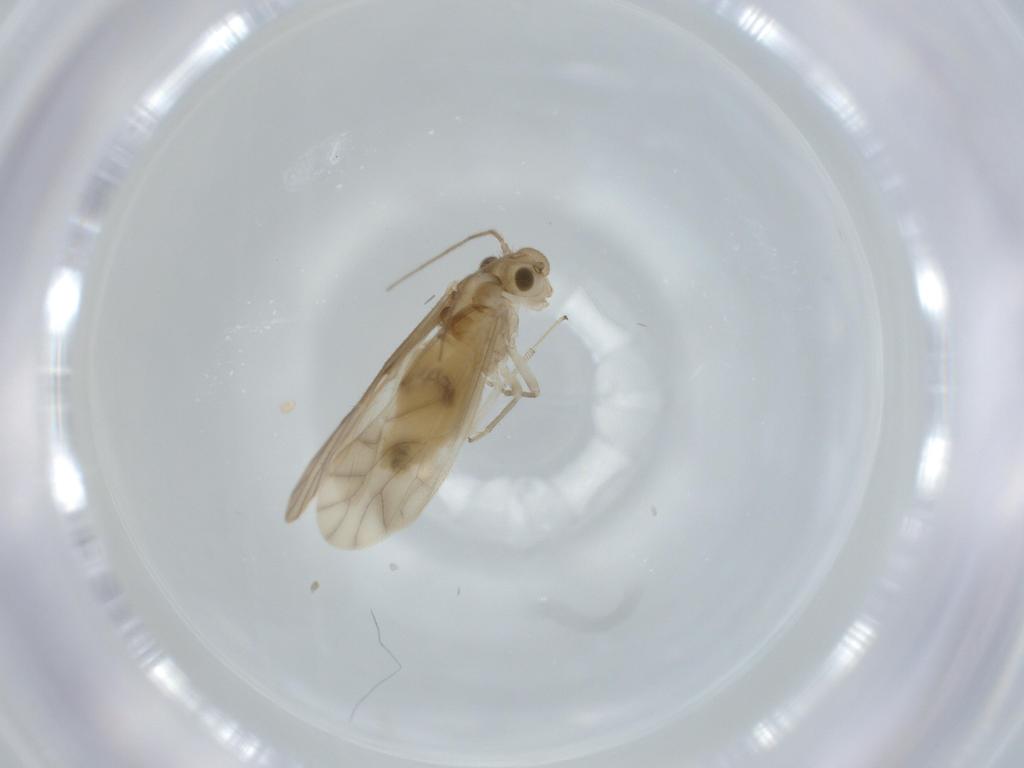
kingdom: Animalia
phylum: Arthropoda
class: Insecta
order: Psocodea
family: Caeciliusidae
